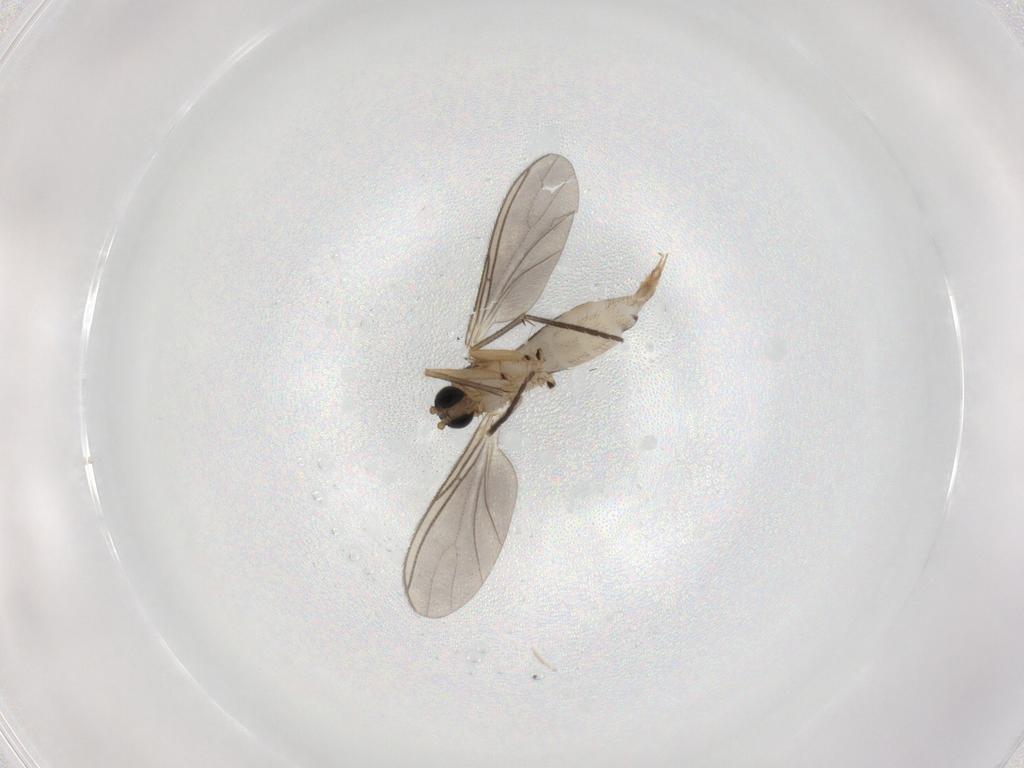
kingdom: Animalia
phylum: Arthropoda
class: Insecta
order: Diptera
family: Sciaridae
